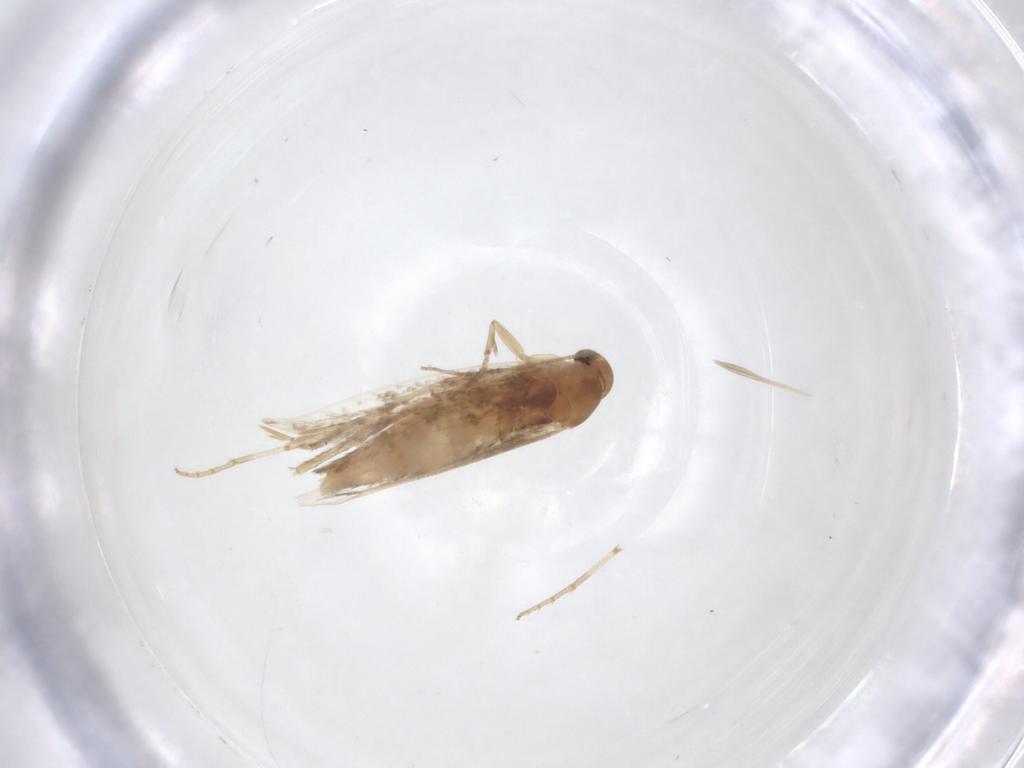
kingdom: Animalia
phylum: Arthropoda
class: Insecta
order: Lepidoptera
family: Elachistidae
